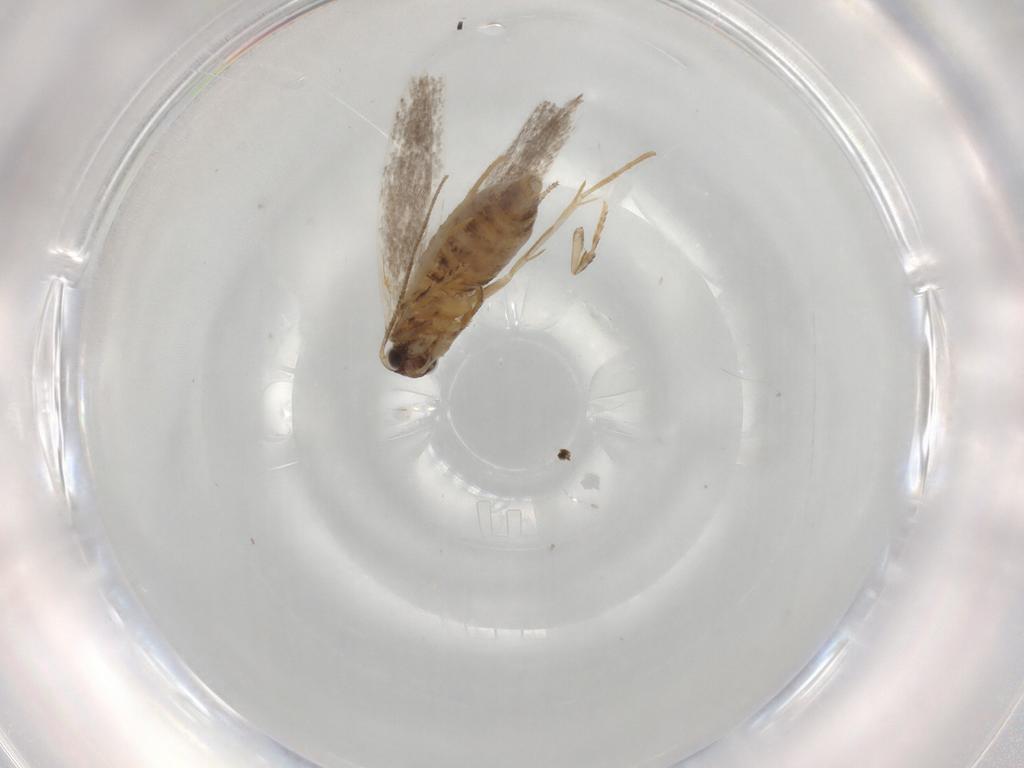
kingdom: Animalia
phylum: Arthropoda
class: Insecta
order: Lepidoptera
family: Tineidae
